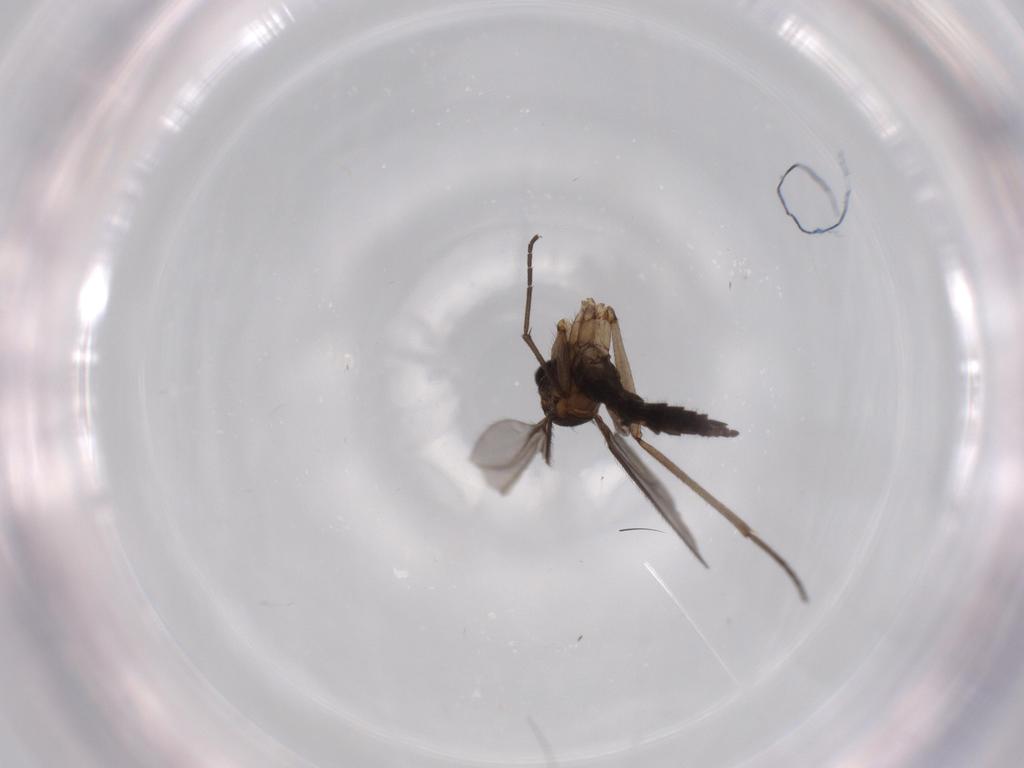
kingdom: Animalia
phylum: Arthropoda
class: Insecta
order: Diptera
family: Sciaridae
